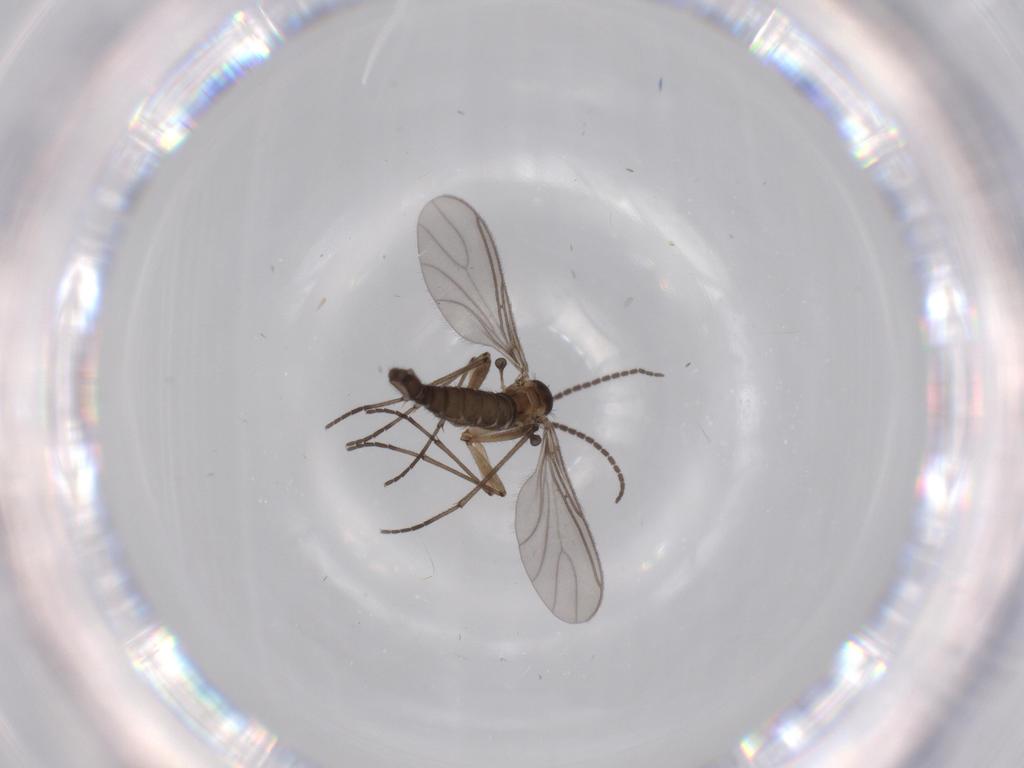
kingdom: Animalia
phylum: Arthropoda
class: Insecta
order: Diptera
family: Sciaridae
